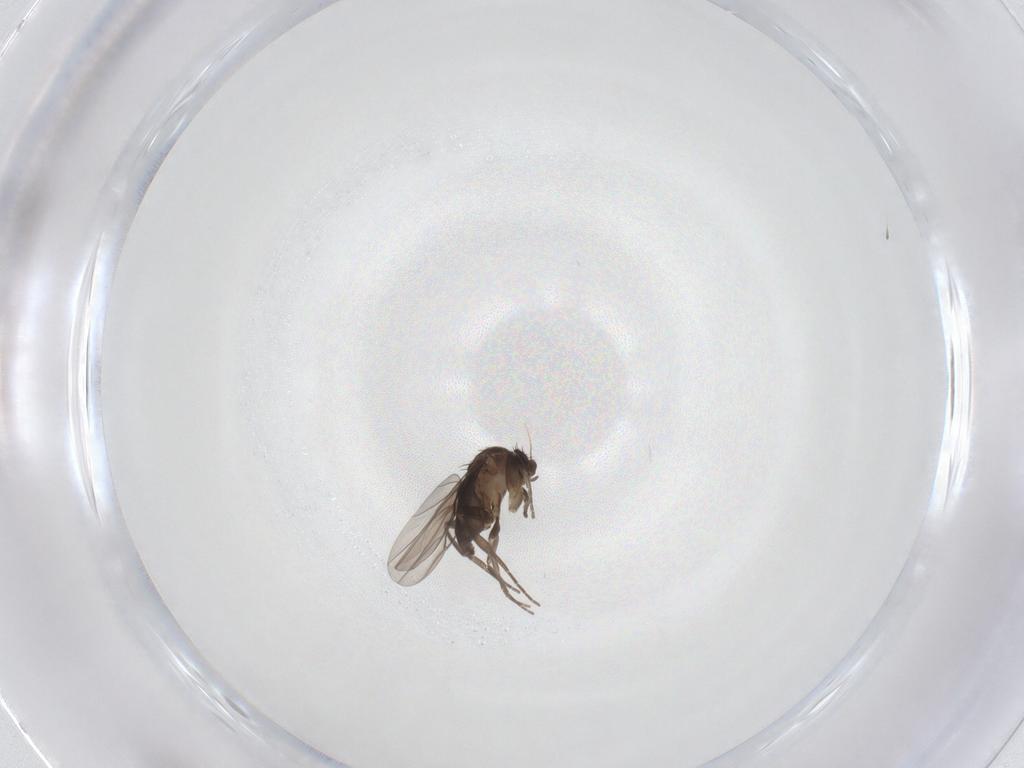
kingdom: Animalia
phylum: Arthropoda
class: Insecta
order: Diptera
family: Phoridae
